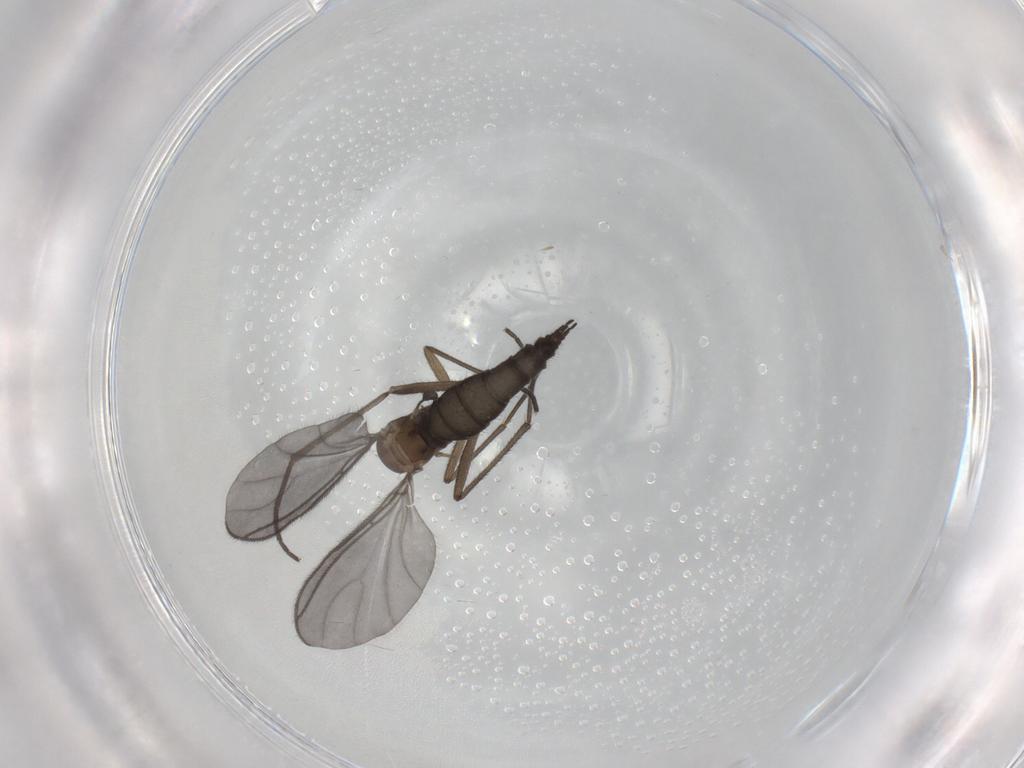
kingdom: Animalia
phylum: Arthropoda
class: Insecta
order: Diptera
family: Sciaridae
